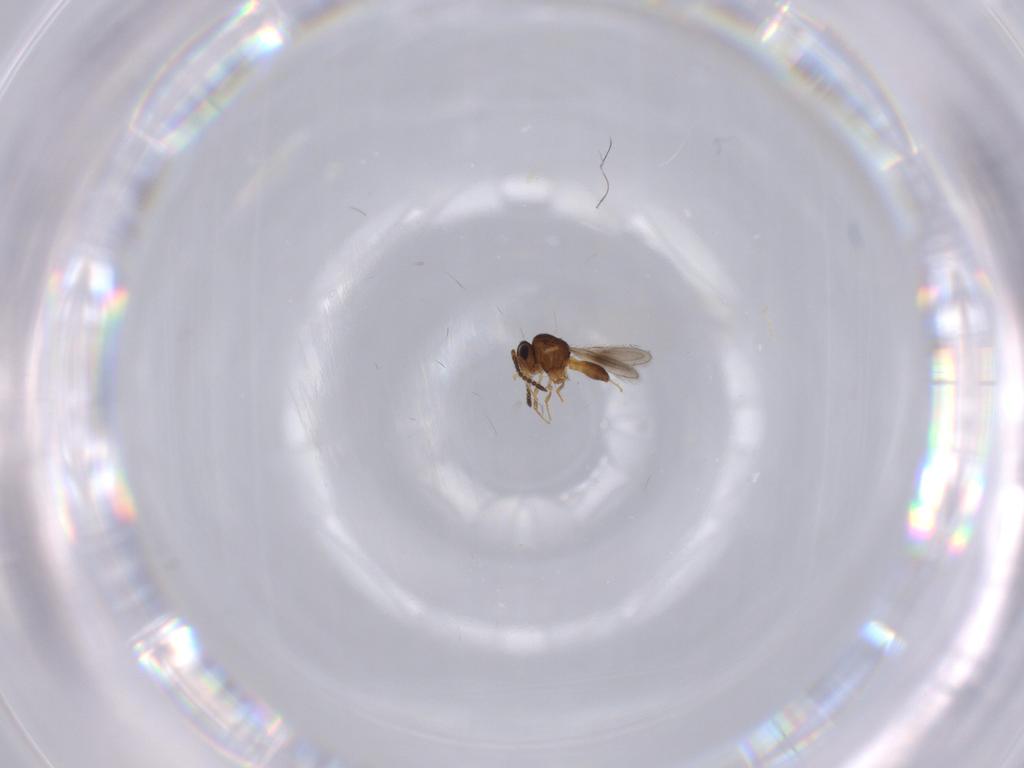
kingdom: Animalia
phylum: Arthropoda
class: Insecta
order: Hymenoptera
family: Scelionidae
